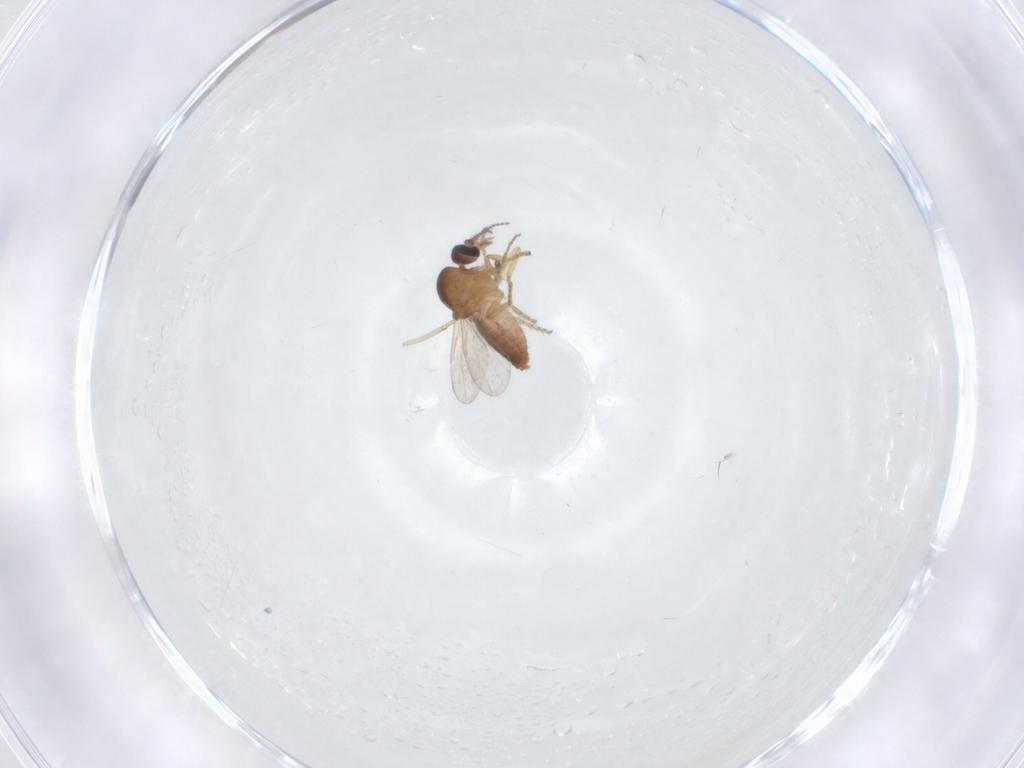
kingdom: Animalia
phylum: Arthropoda
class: Insecta
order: Diptera
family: Ceratopogonidae
